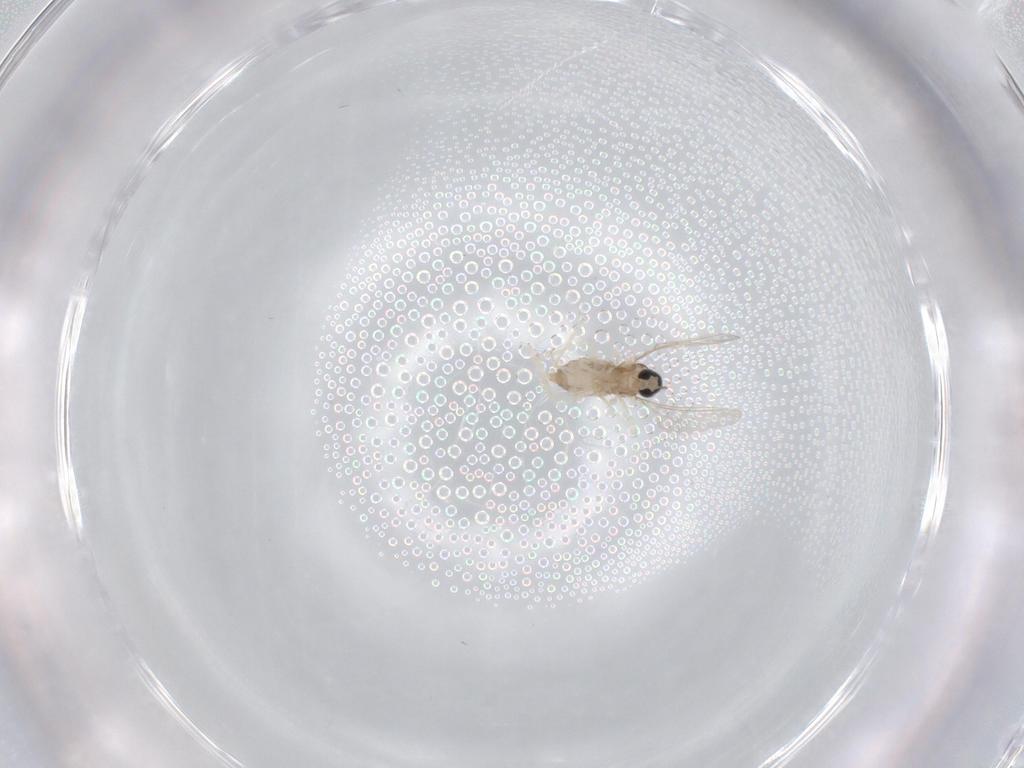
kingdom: Animalia
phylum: Arthropoda
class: Insecta
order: Diptera
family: Cecidomyiidae
